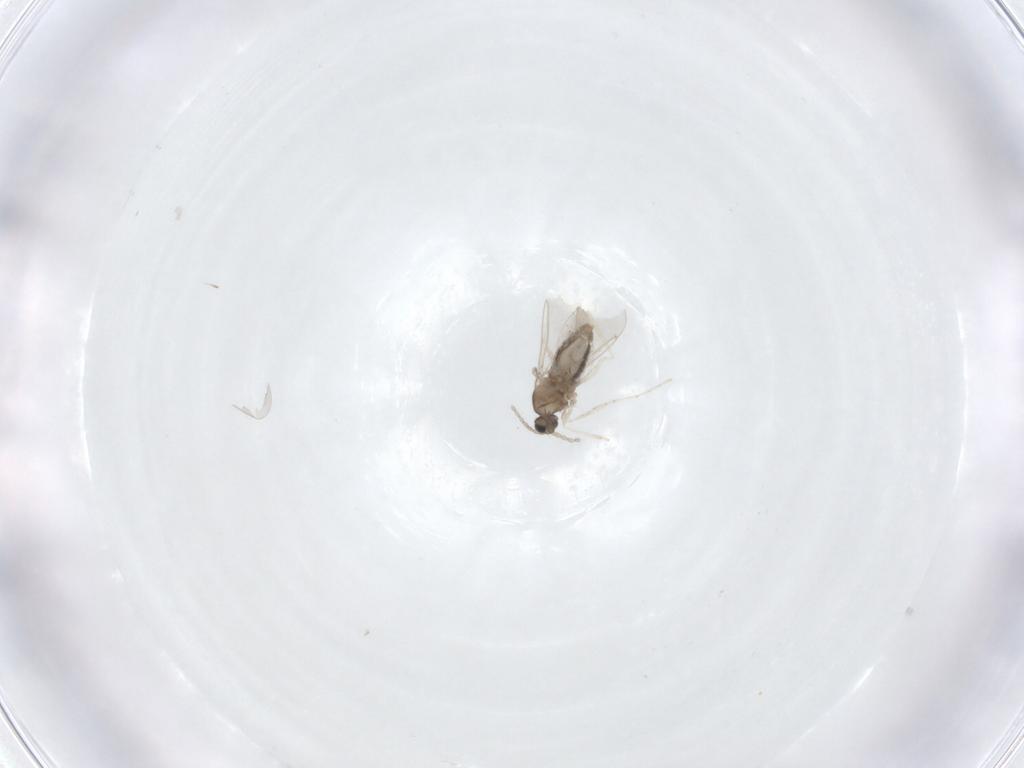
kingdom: Animalia
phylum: Arthropoda
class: Insecta
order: Diptera
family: Cecidomyiidae
